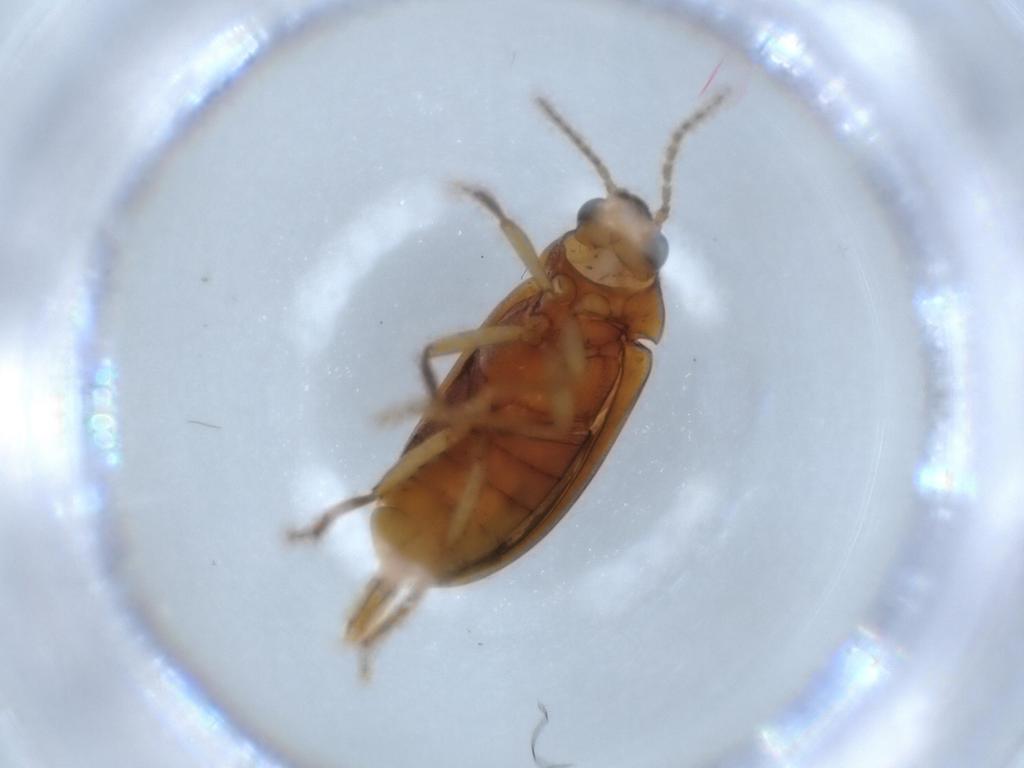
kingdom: Animalia
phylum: Arthropoda
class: Insecta
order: Coleoptera
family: Ptilodactylidae
